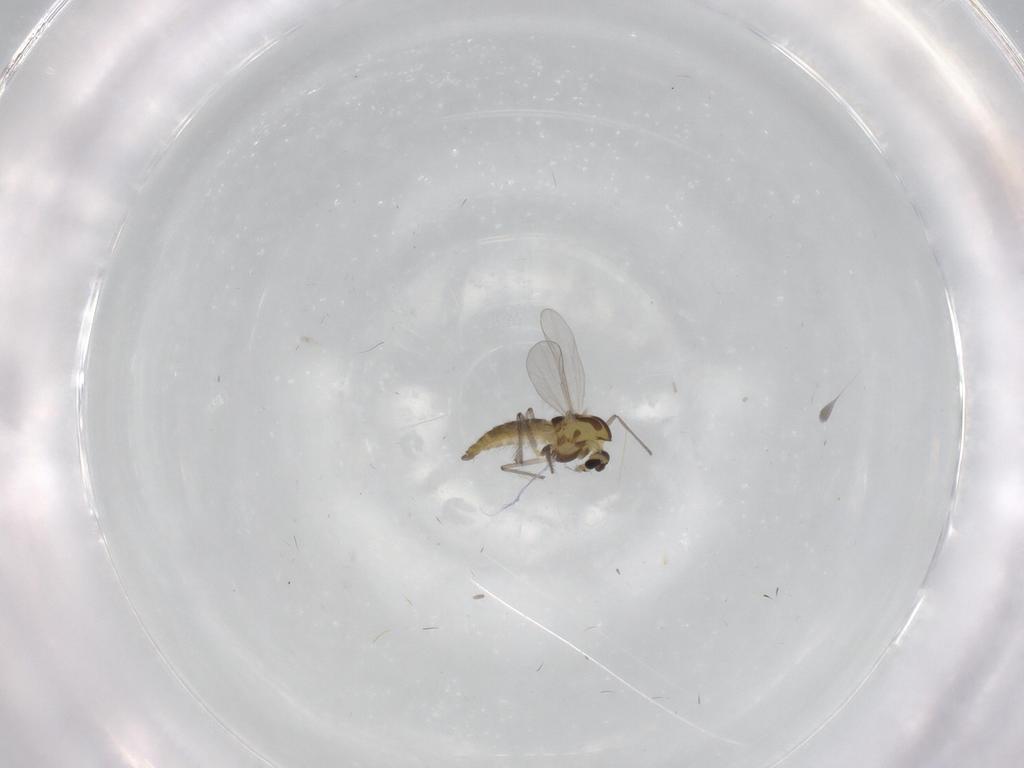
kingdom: Animalia
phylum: Arthropoda
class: Insecta
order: Diptera
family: Chironomidae
